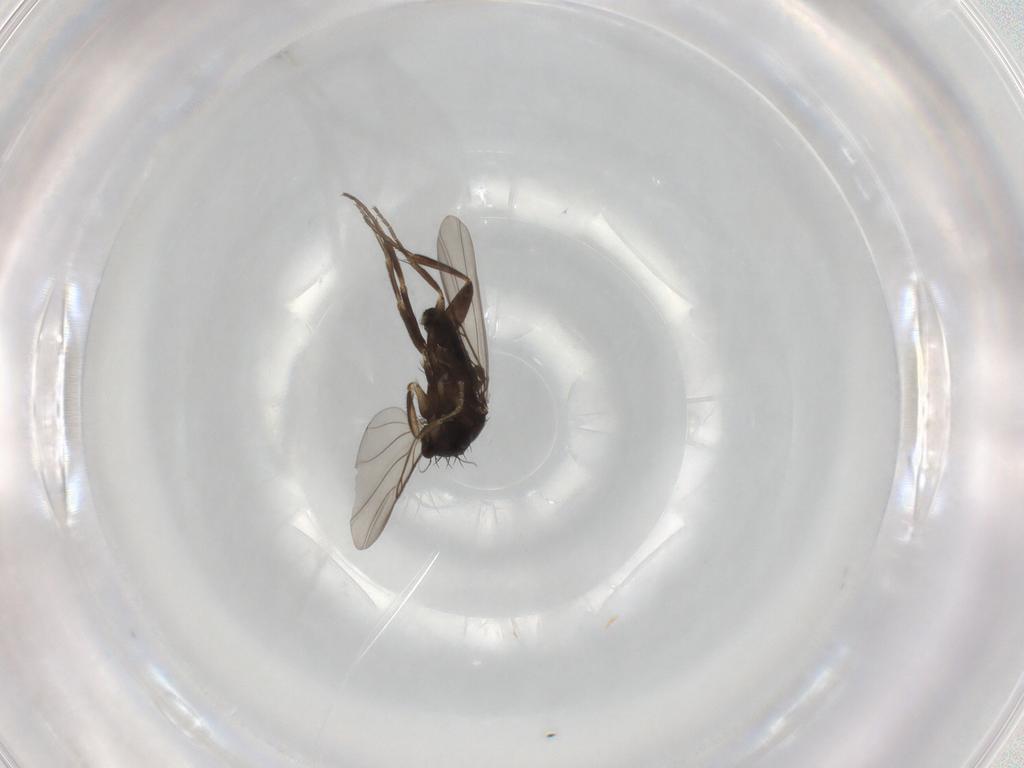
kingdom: Animalia
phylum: Arthropoda
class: Insecta
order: Diptera
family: Phoridae
